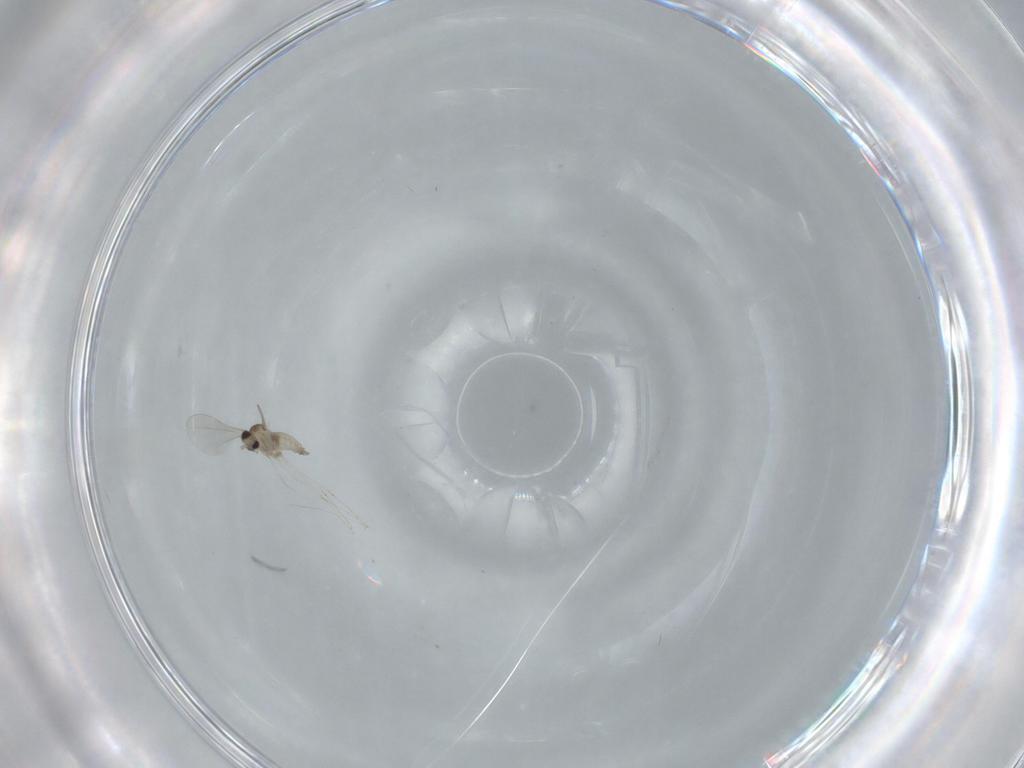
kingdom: Animalia
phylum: Arthropoda
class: Insecta
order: Diptera
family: Cecidomyiidae
